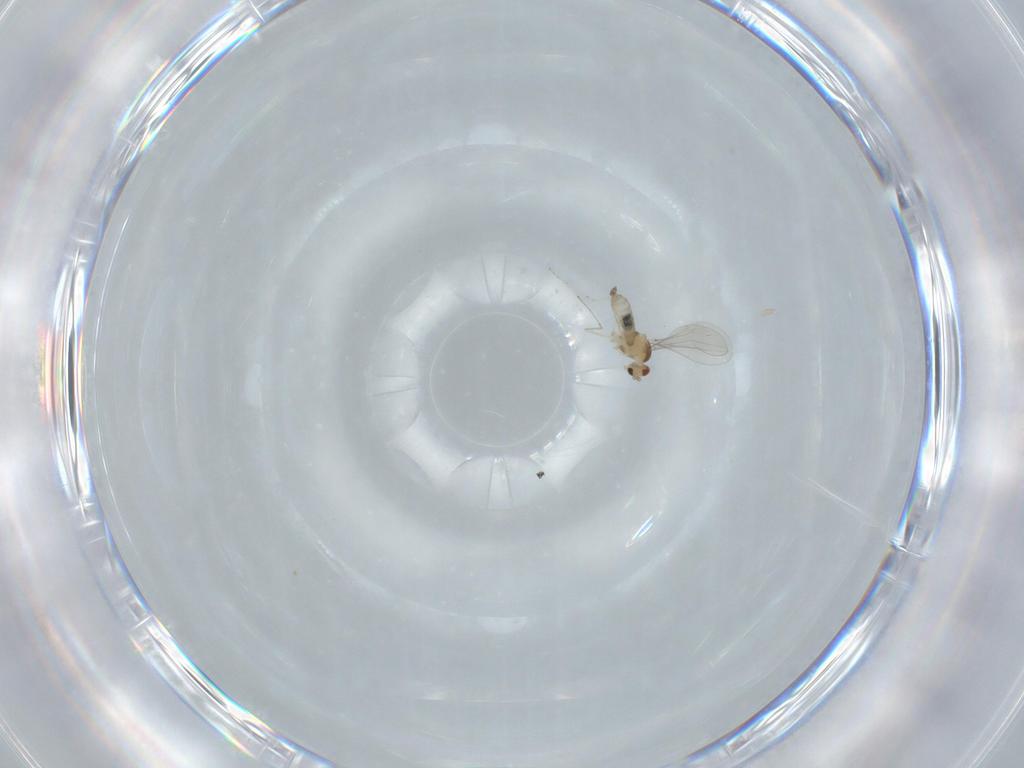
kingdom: Animalia
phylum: Arthropoda
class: Insecta
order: Diptera
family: Cecidomyiidae
